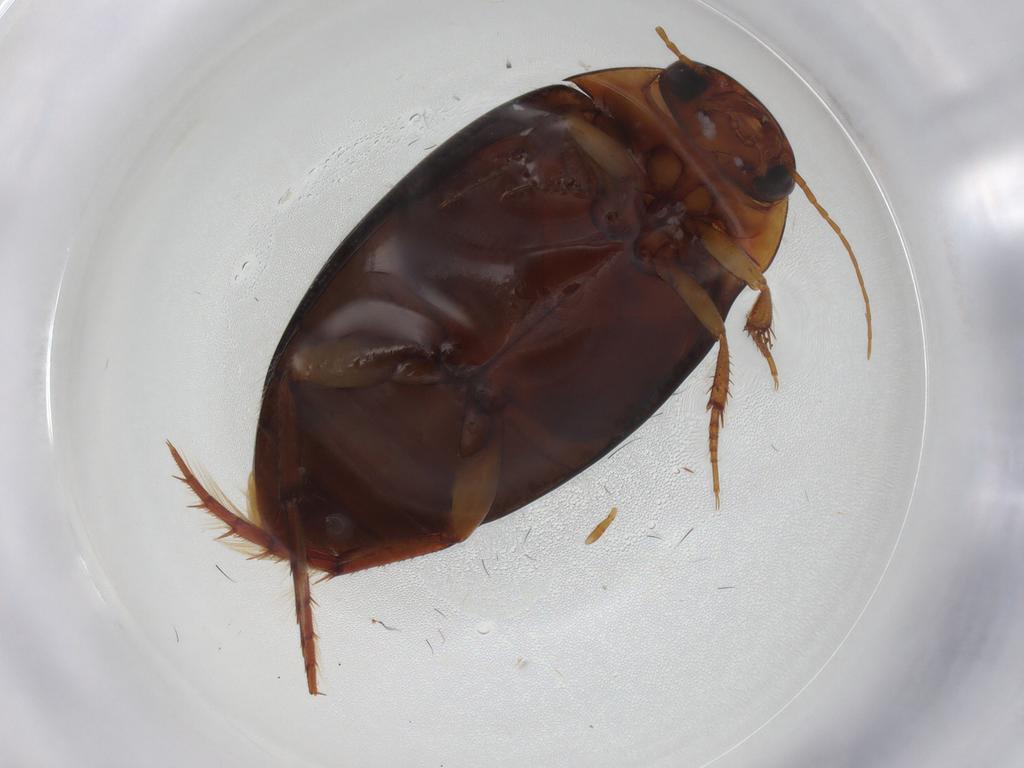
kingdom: Animalia
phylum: Arthropoda
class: Insecta
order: Coleoptera
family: Dytiscidae
